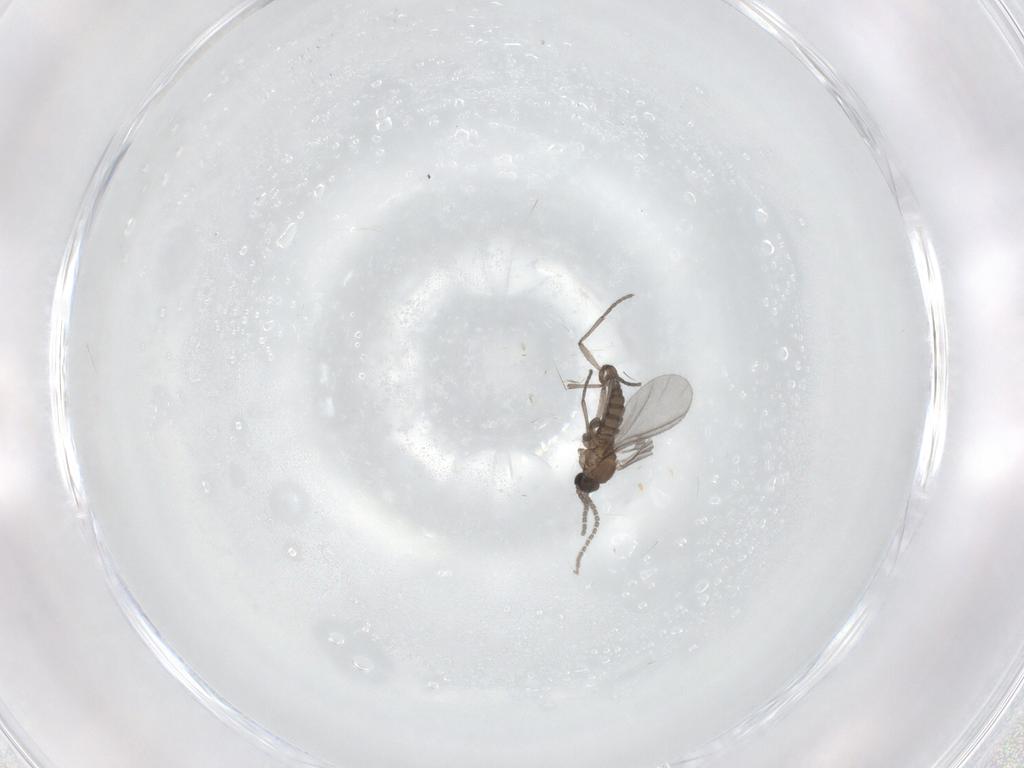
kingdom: Animalia
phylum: Arthropoda
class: Insecta
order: Diptera
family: Sciaridae
